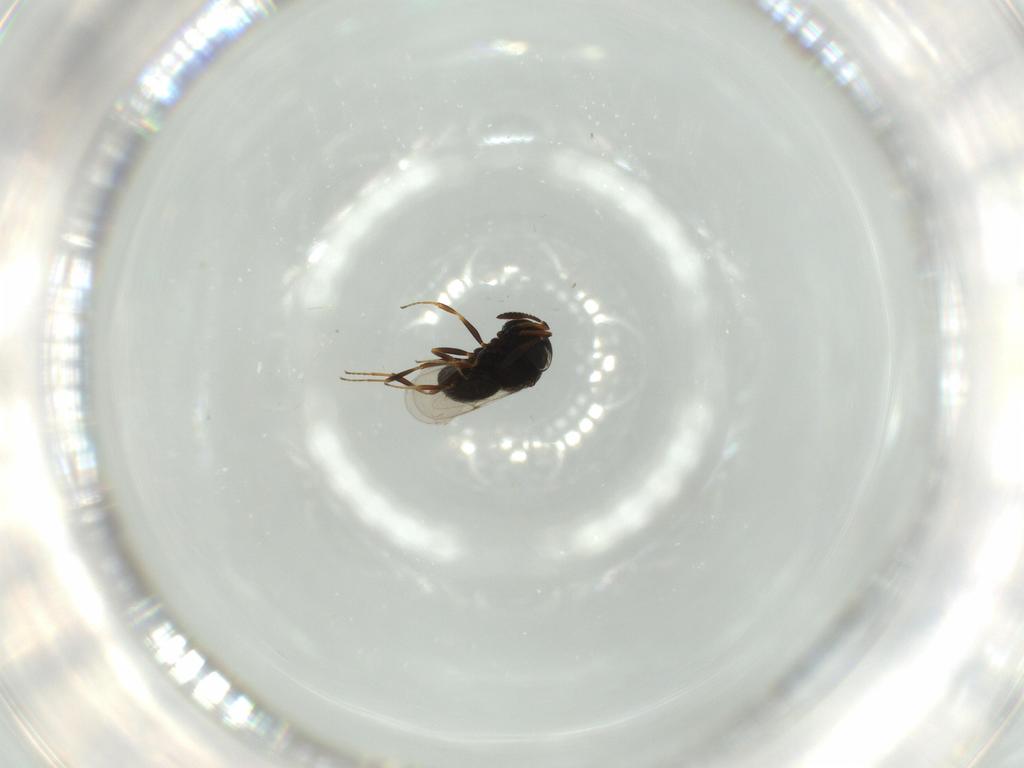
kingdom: Animalia
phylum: Arthropoda
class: Insecta
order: Hymenoptera
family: Scelionidae
